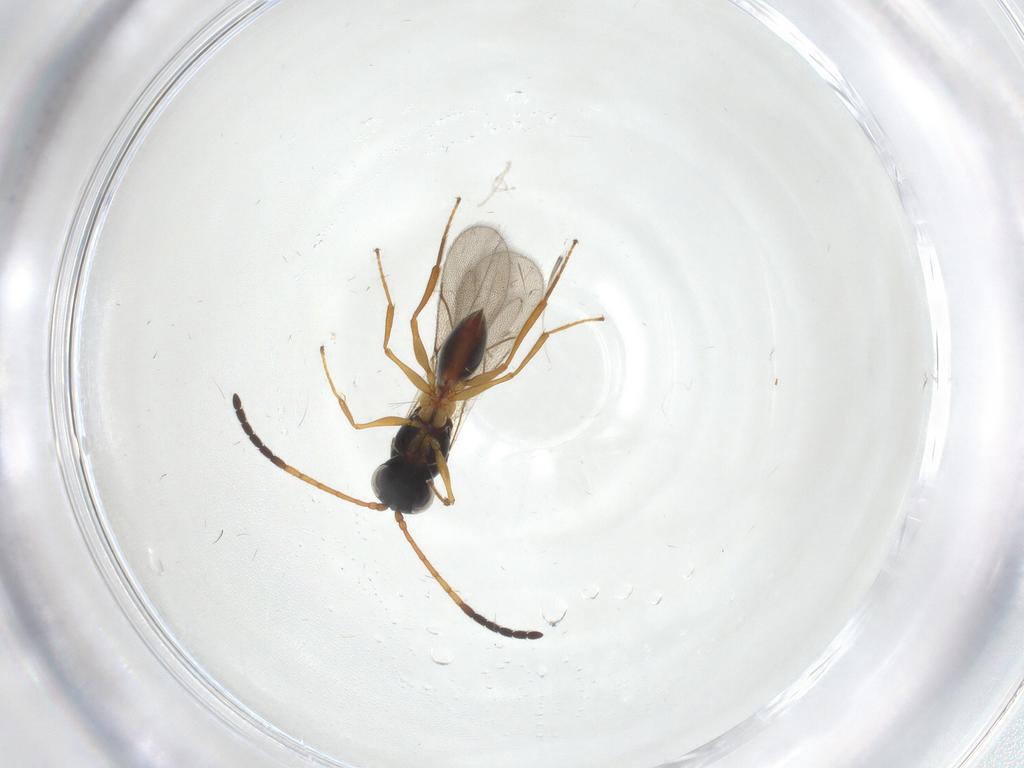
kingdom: Animalia
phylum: Arthropoda
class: Insecta
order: Hymenoptera
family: Figitidae
